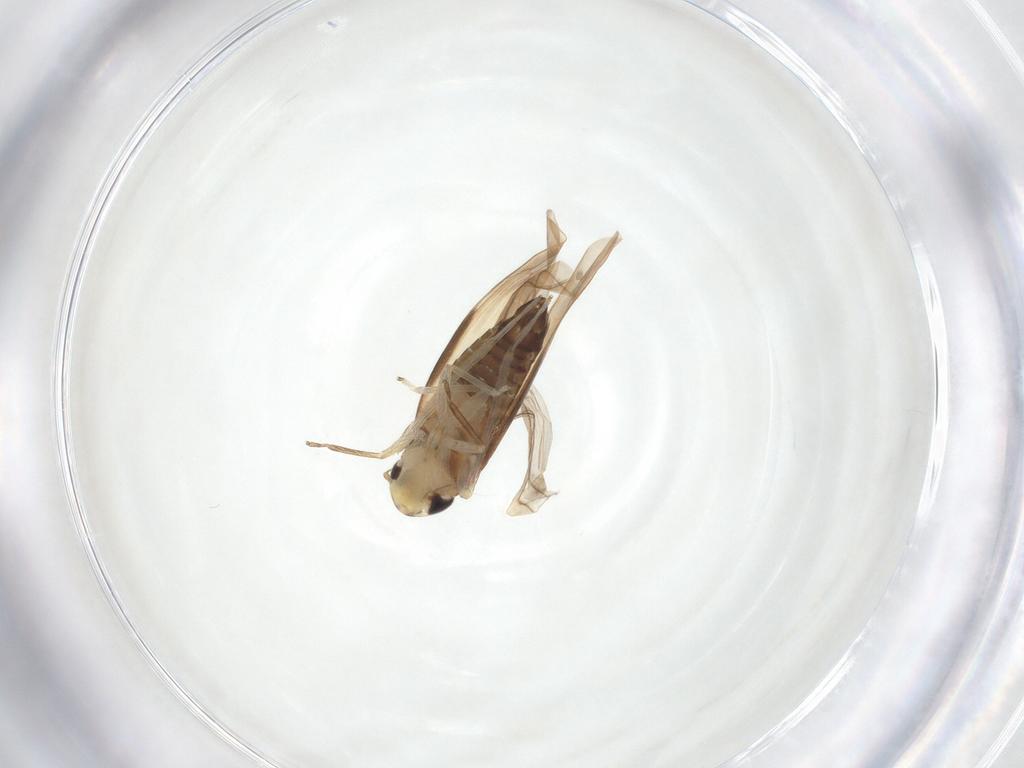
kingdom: Animalia
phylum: Arthropoda
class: Insecta
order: Hemiptera
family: Cicadellidae
